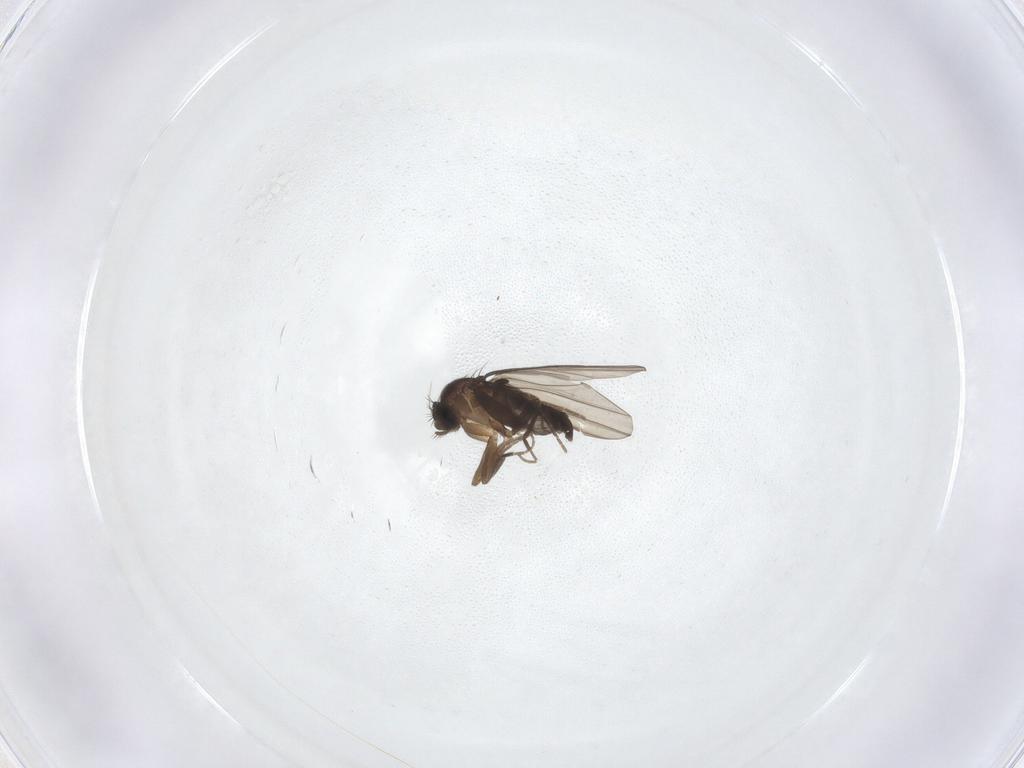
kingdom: Animalia
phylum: Arthropoda
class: Insecta
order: Diptera
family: Phoridae
